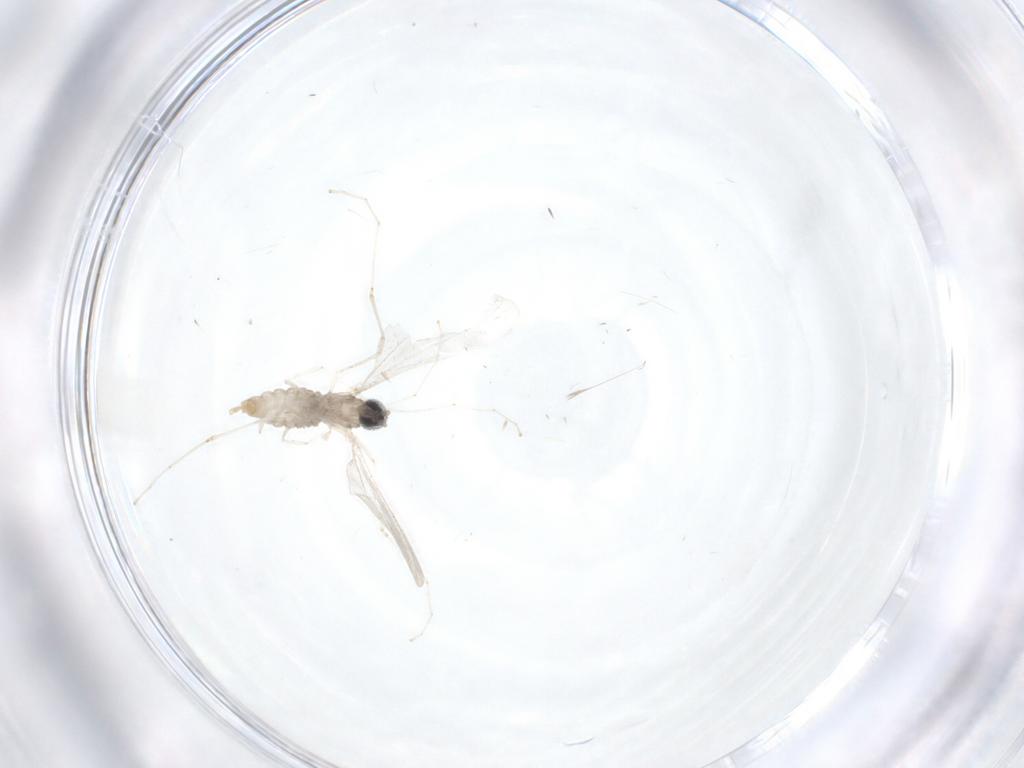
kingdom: Animalia
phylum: Arthropoda
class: Insecta
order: Diptera
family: Cecidomyiidae
